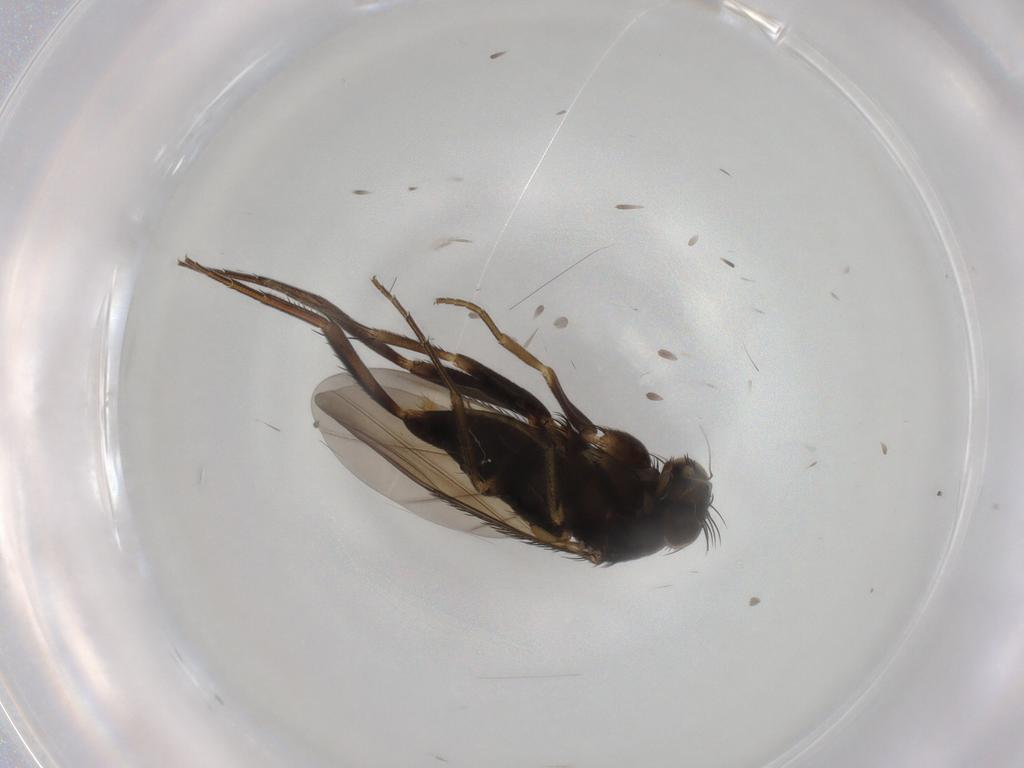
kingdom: Animalia
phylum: Arthropoda
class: Insecta
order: Diptera
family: Phoridae
